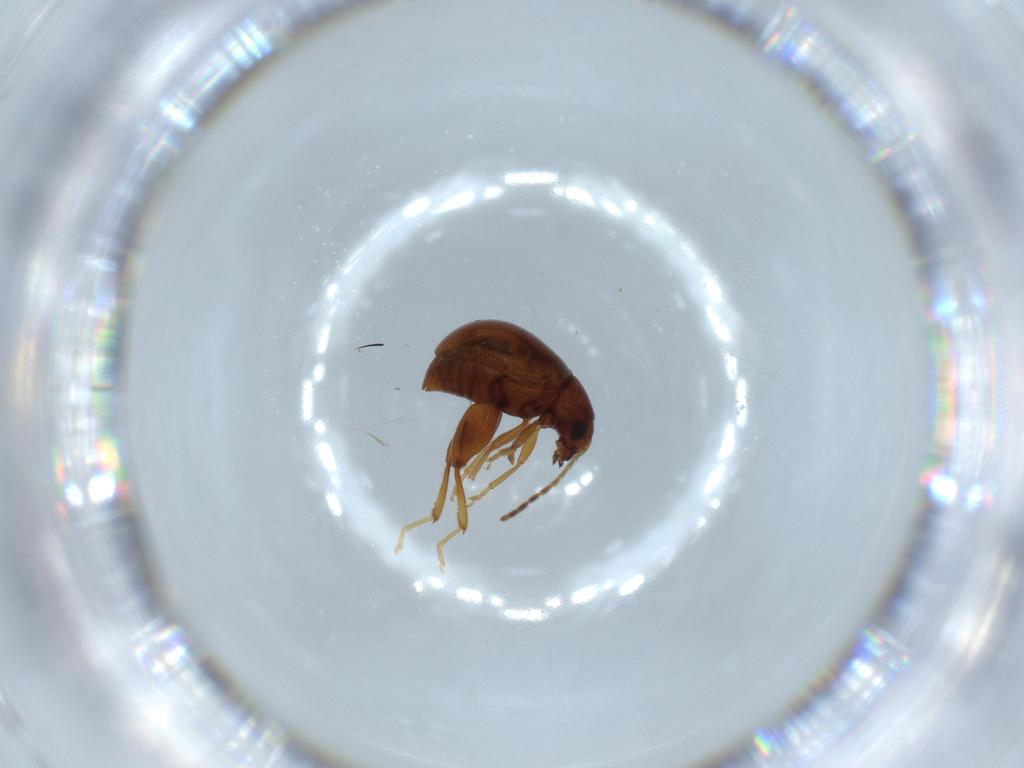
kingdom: Animalia
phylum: Arthropoda
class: Insecta
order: Coleoptera
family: Chrysomelidae
